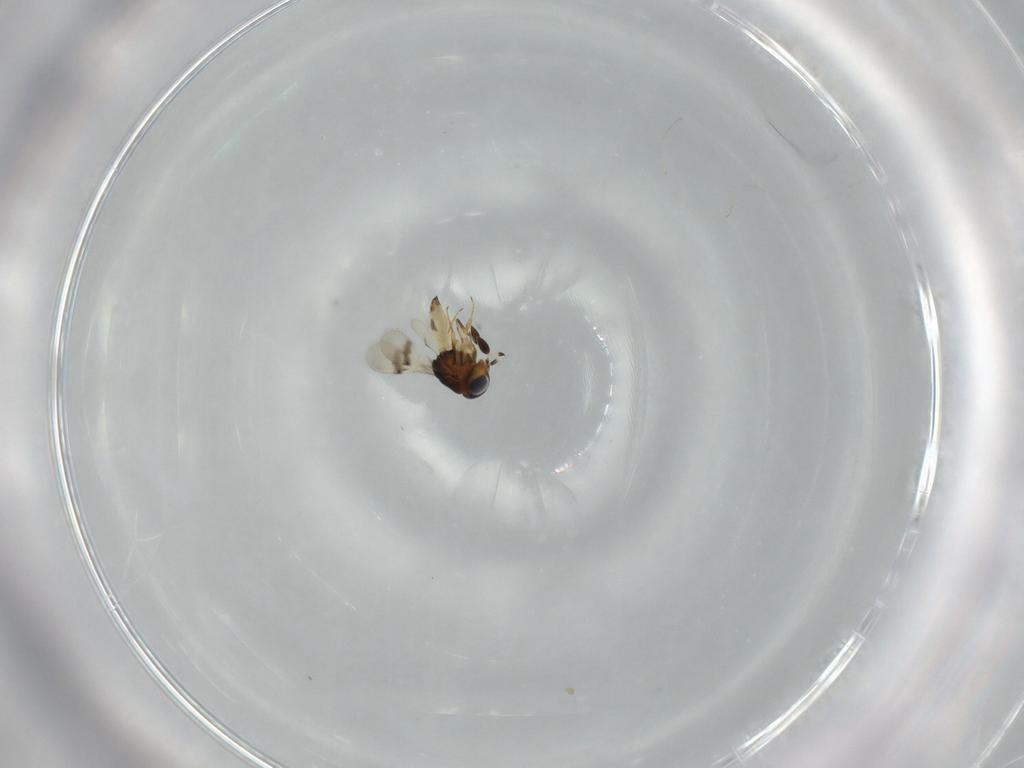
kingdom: Animalia
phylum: Arthropoda
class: Arachnida
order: Araneae
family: Pholcidae
